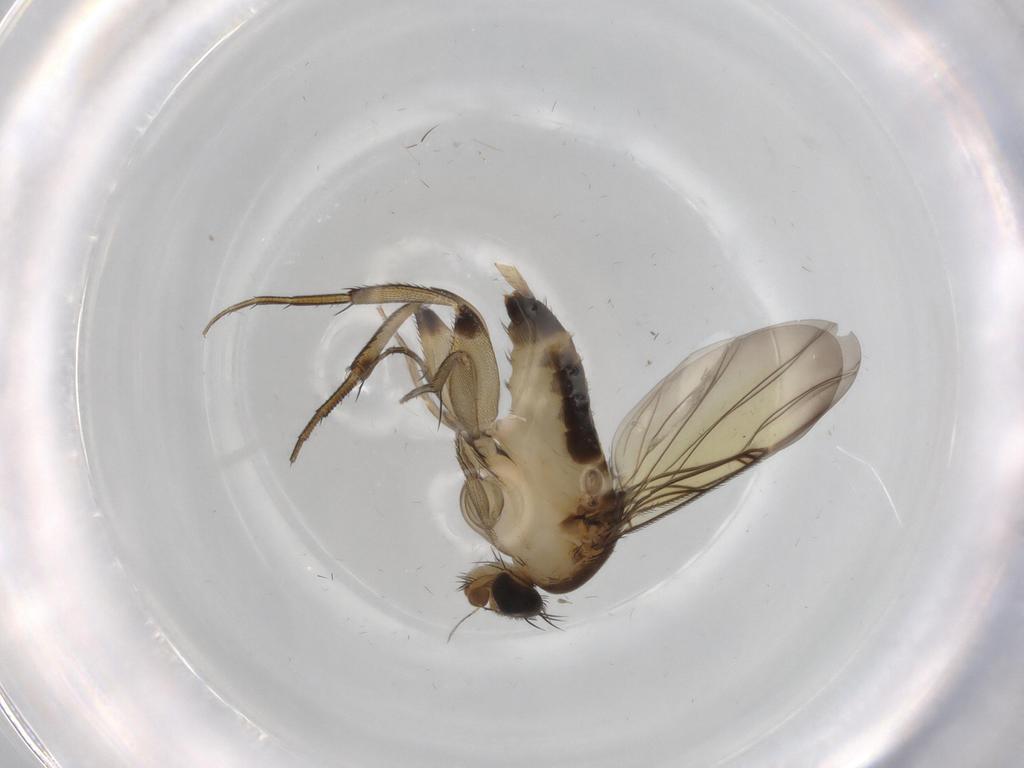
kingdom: Animalia
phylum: Arthropoda
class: Insecta
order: Diptera
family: Phoridae
